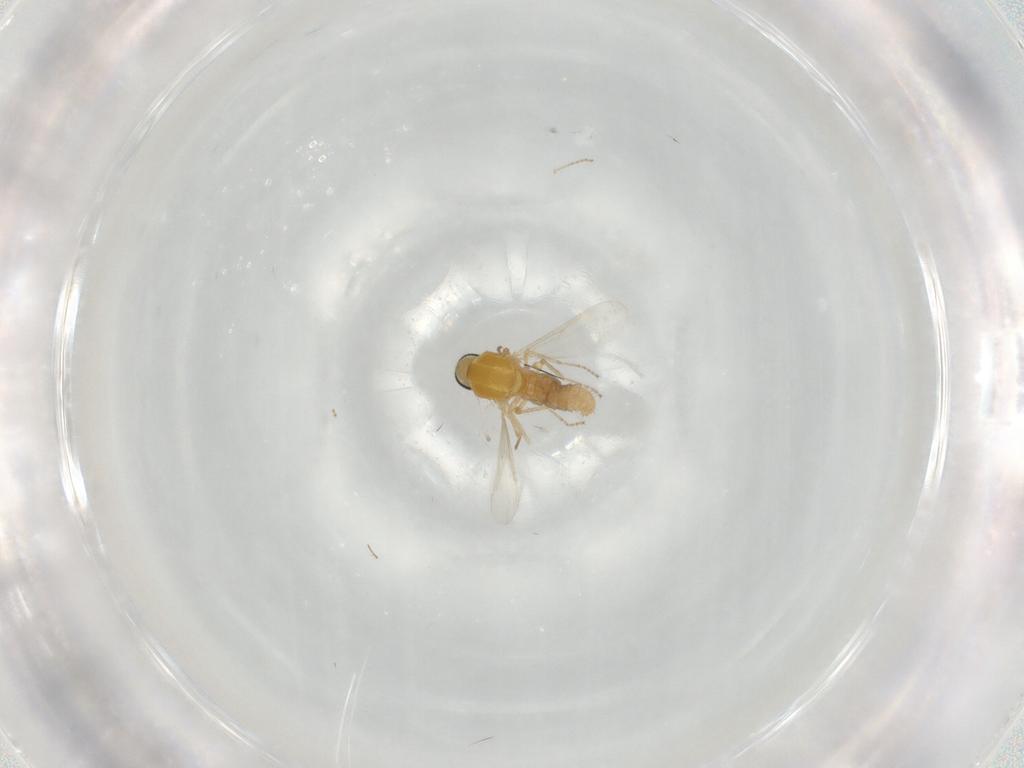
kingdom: Animalia
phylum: Arthropoda
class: Insecta
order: Diptera
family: Ceratopogonidae
